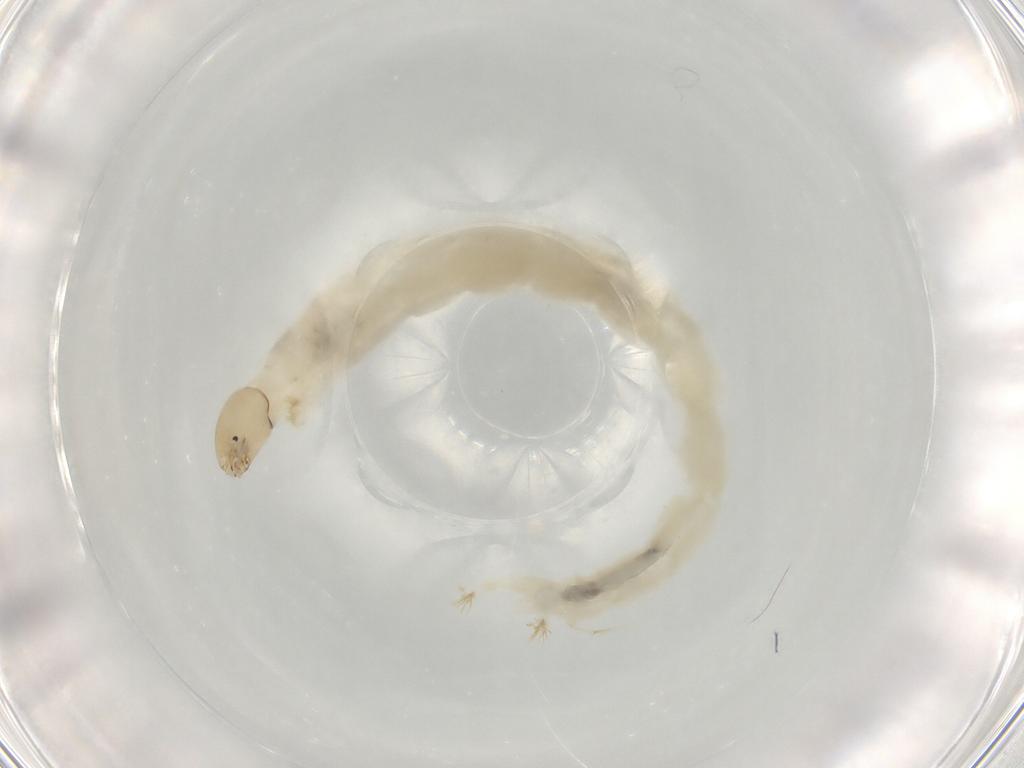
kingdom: Animalia
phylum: Arthropoda
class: Insecta
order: Diptera
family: Chironomidae
